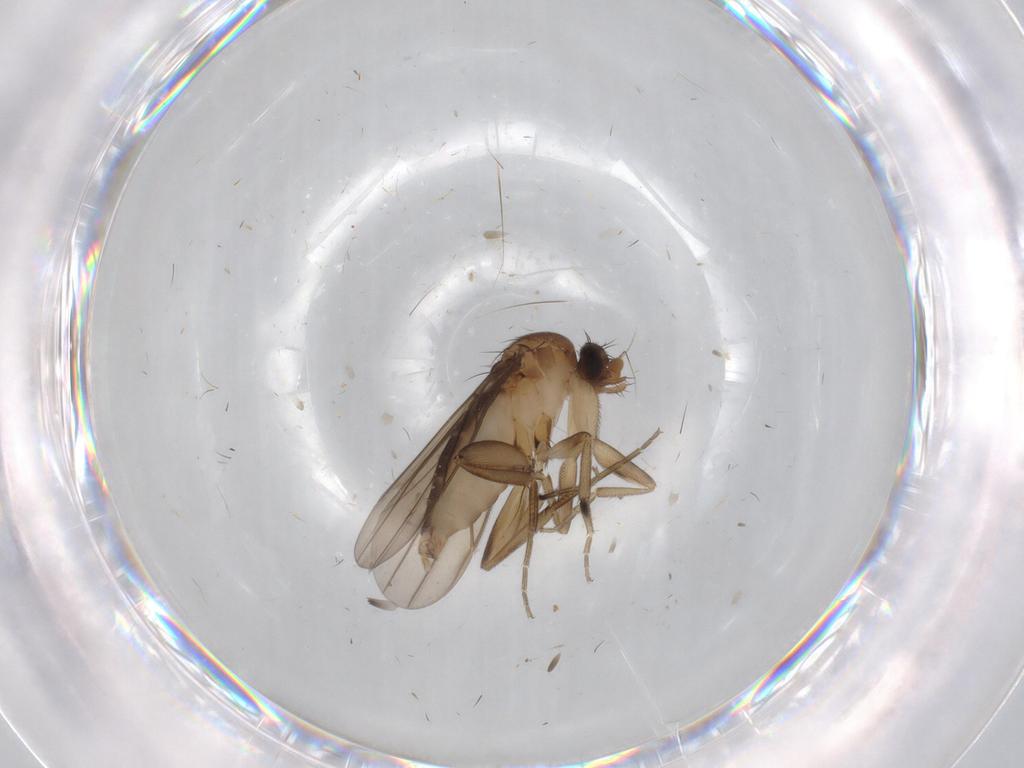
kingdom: Animalia
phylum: Arthropoda
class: Insecta
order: Diptera
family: Phoridae
